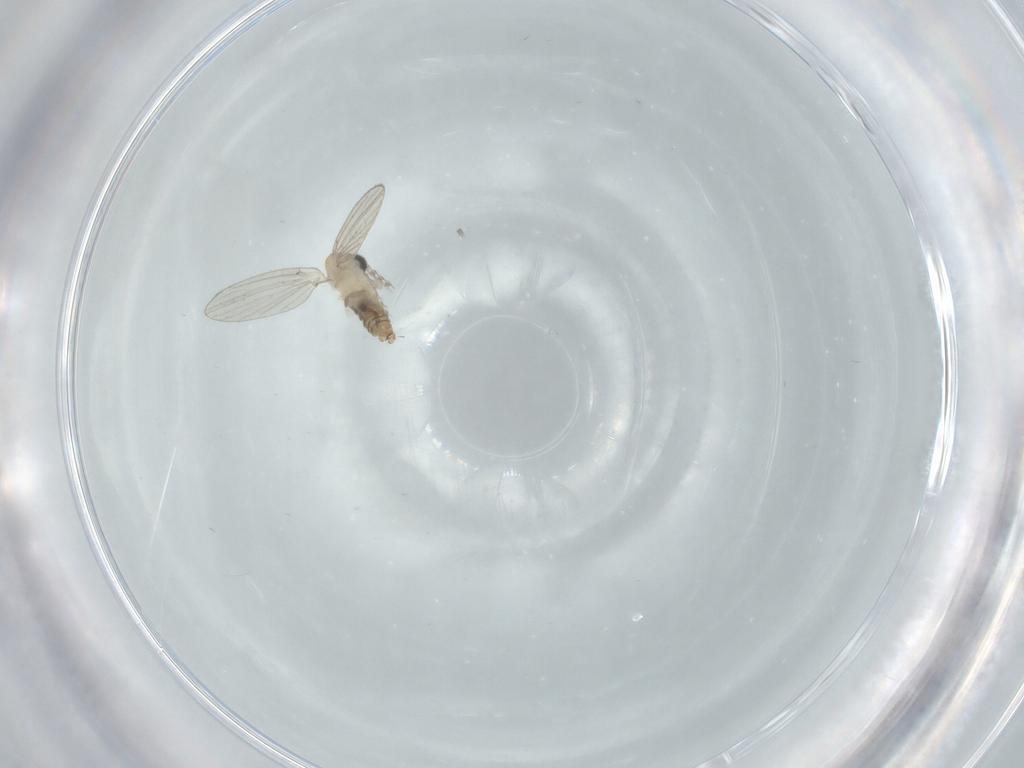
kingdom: Animalia
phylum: Arthropoda
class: Insecta
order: Diptera
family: Psychodidae
